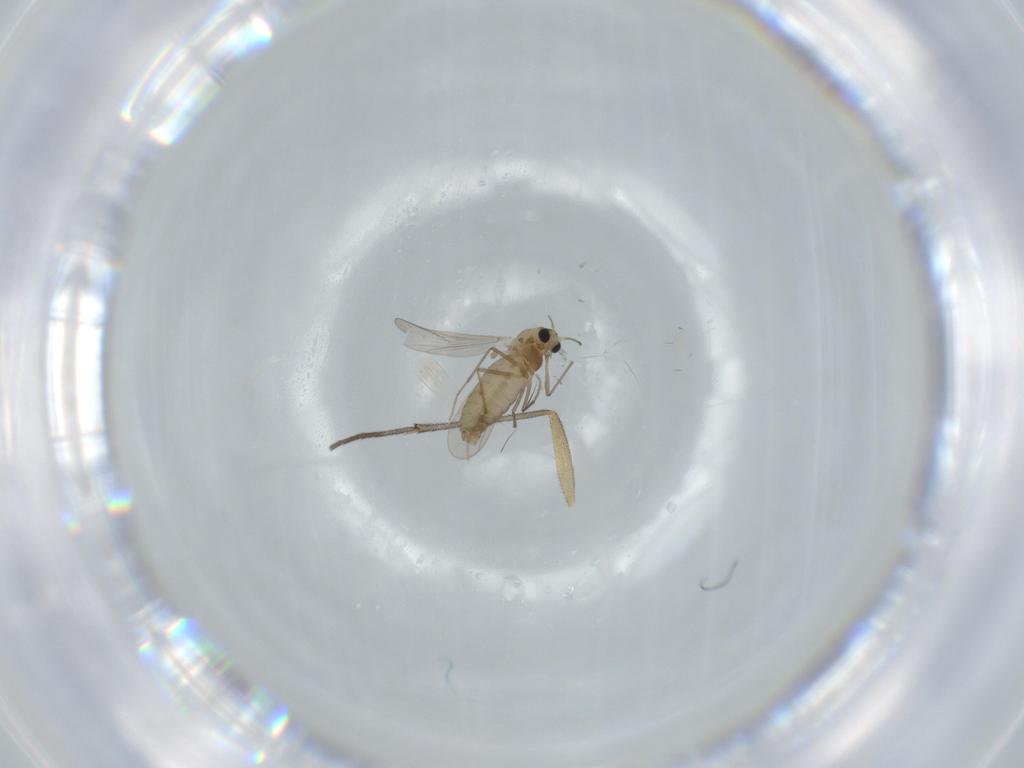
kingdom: Animalia
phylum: Arthropoda
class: Insecta
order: Diptera
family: Chironomidae
